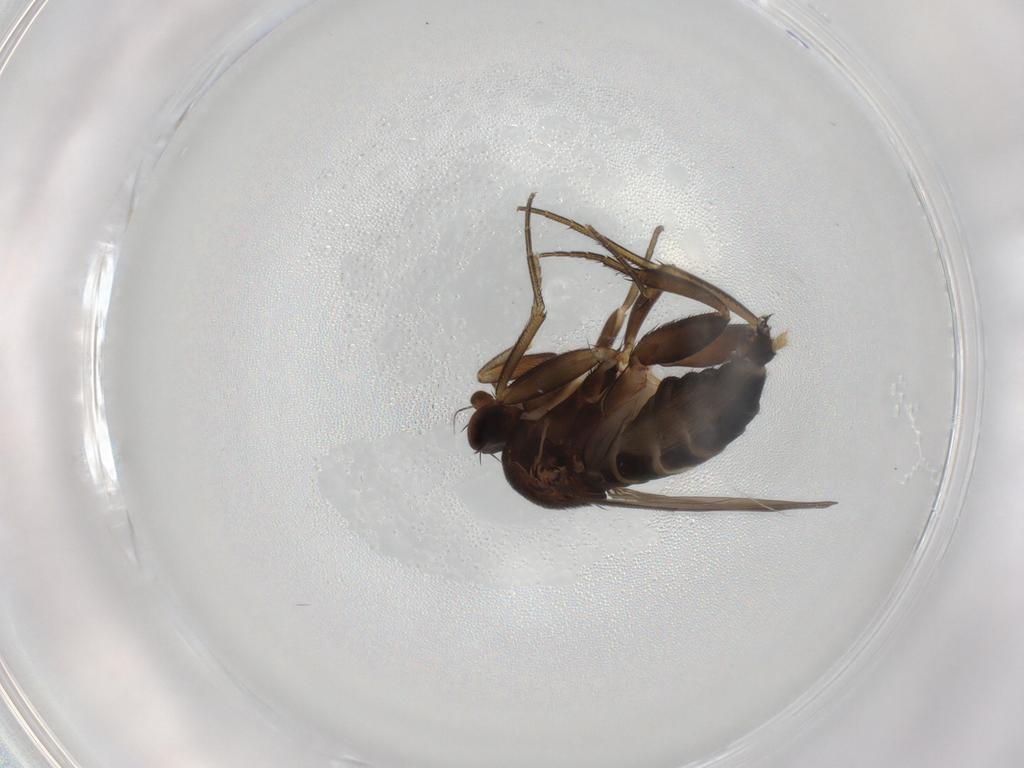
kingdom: Animalia
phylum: Arthropoda
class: Insecta
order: Diptera
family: Phoridae
